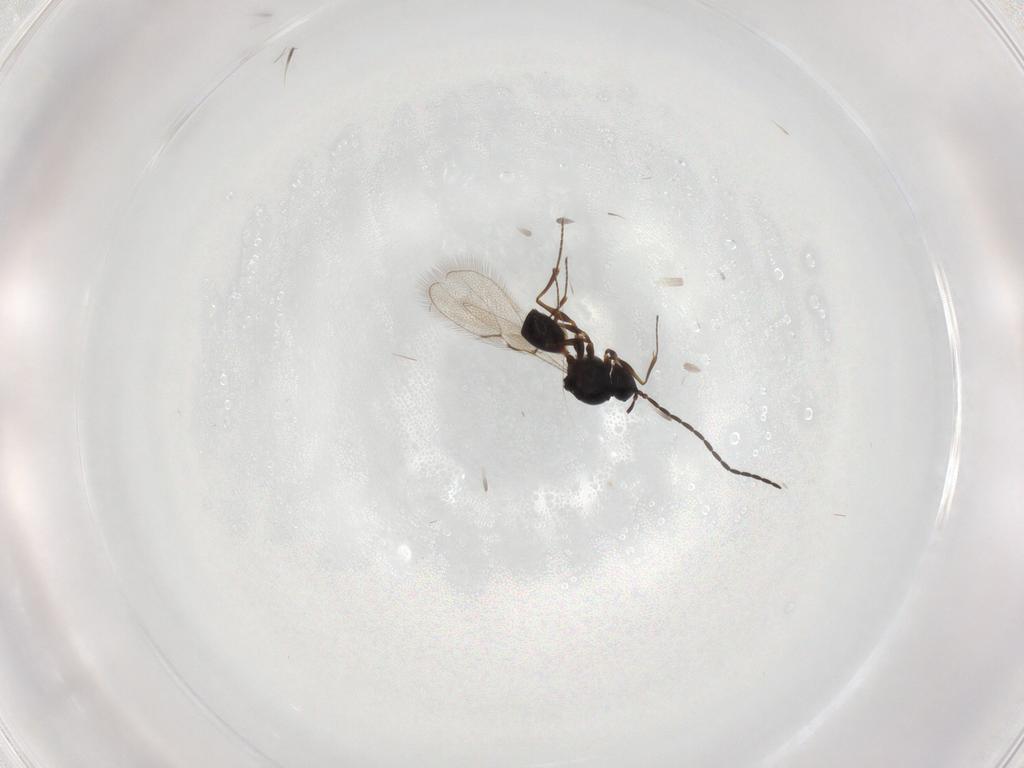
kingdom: Animalia
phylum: Arthropoda
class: Insecta
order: Hymenoptera
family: Figitidae
